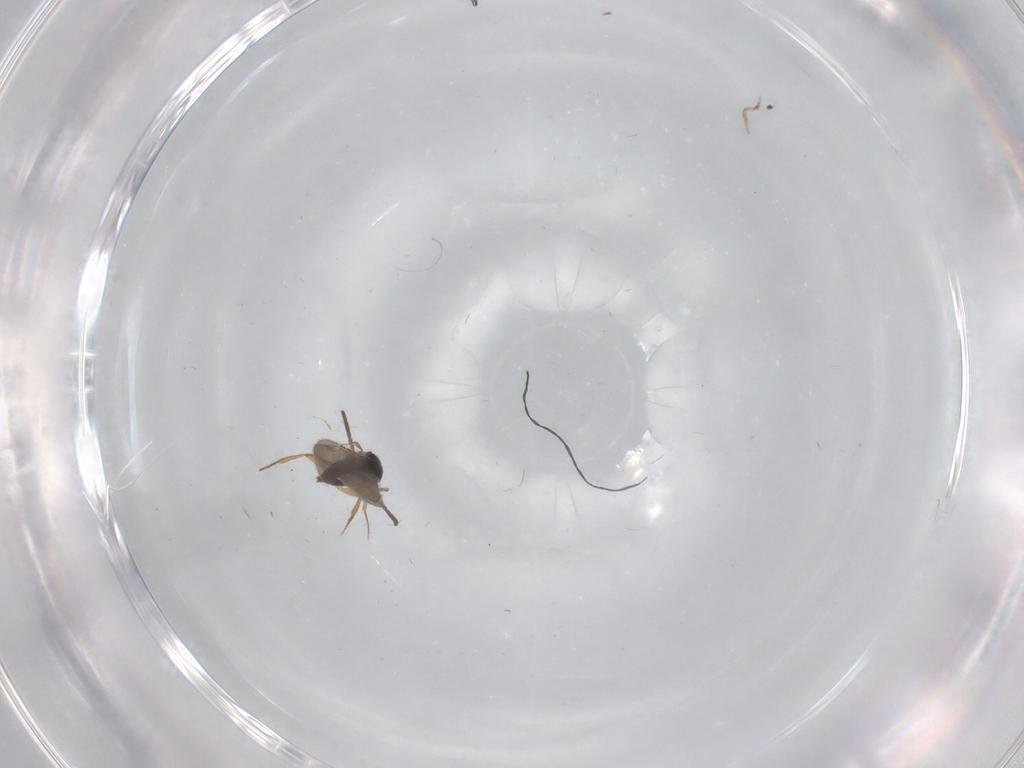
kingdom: Animalia
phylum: Arthropoda
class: Insecta
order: Hymenoptera
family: Ceraphronidae
